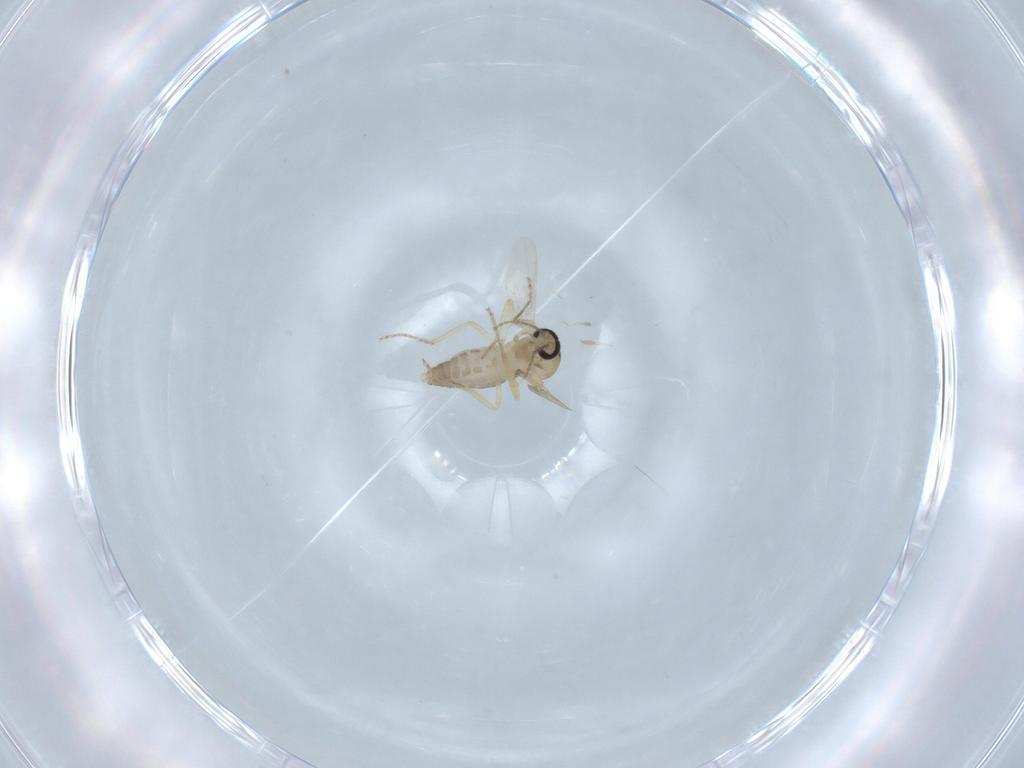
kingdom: Animalia
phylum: Arthropoda
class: Insecta
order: Diptera
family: Ceratopogonidae
